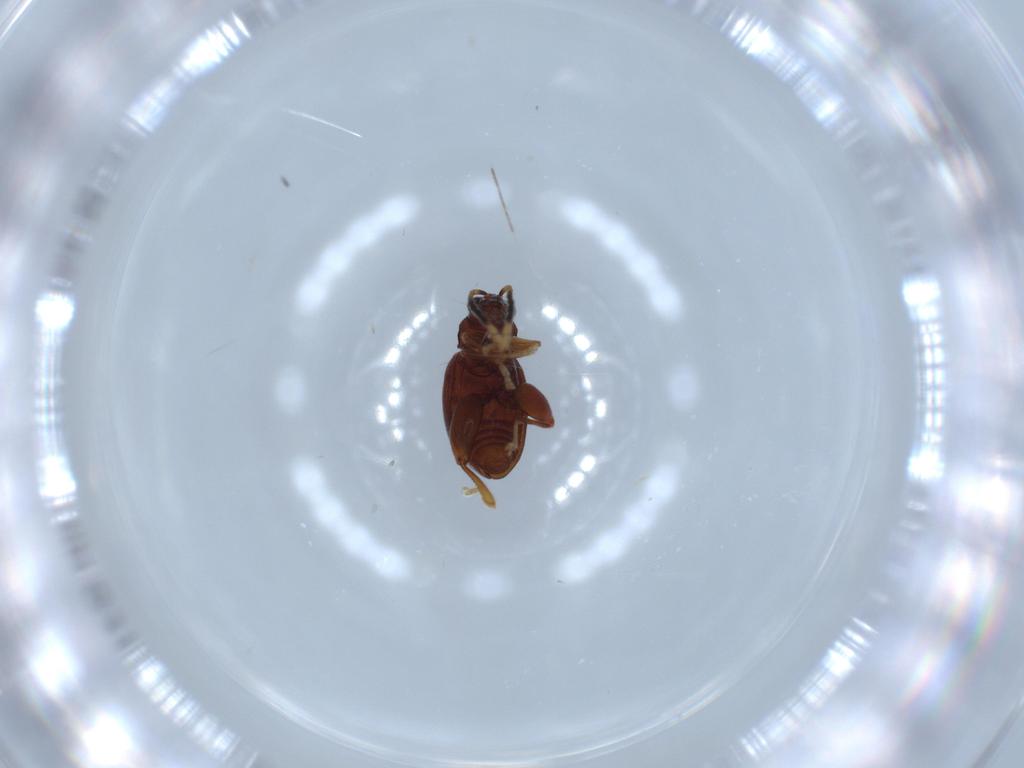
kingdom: Animalia
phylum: Arthropoda
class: Insecta
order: Coleoptera
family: Chrysomelidae
